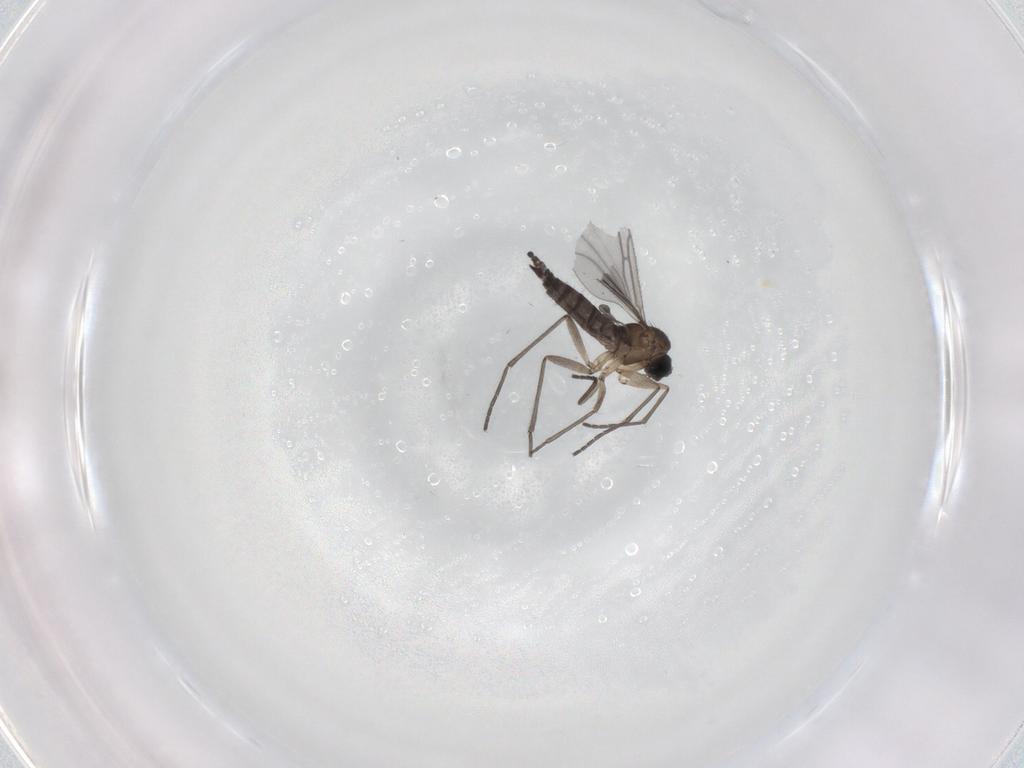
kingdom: Animalia
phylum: Arthropoda
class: Insecta
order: Diptera
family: Sciaridae
